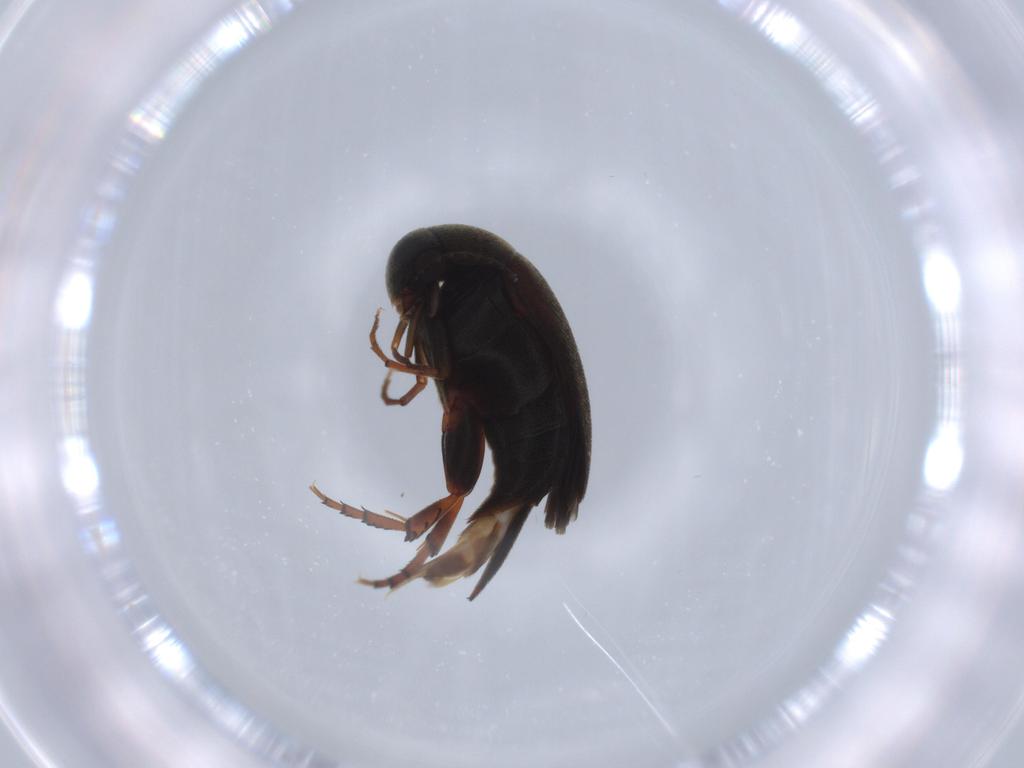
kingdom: Animalia
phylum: Arthropoda
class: Insecta
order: Coleoptera
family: Mordellidae
